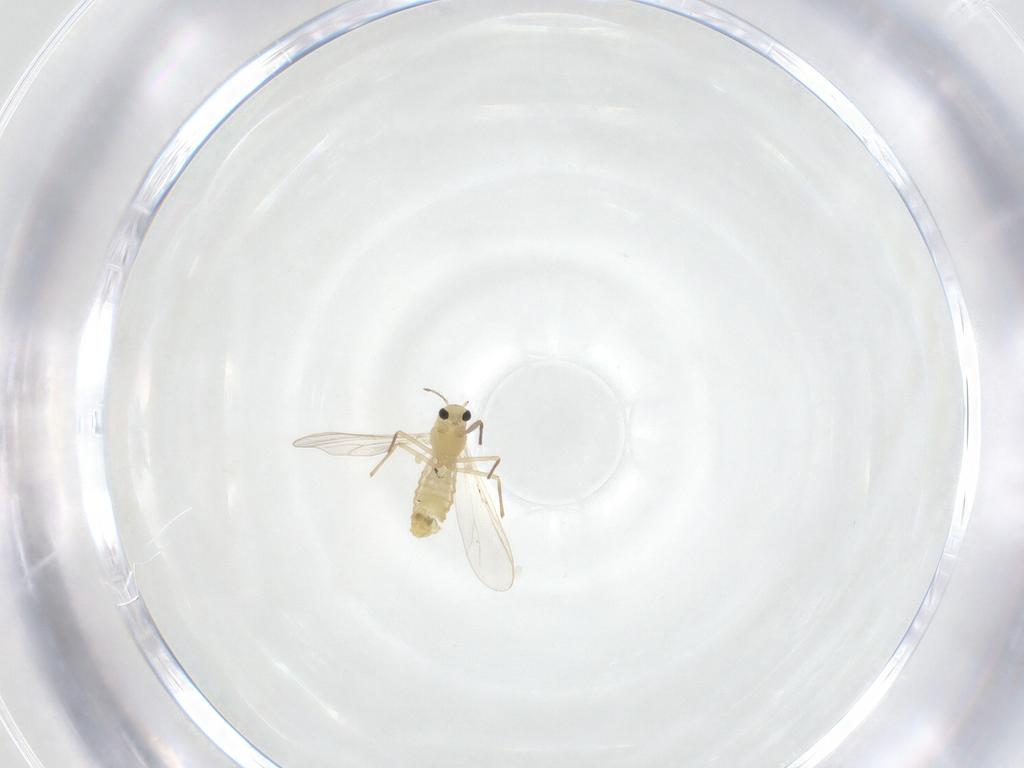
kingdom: Animalia
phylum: Arthropoda
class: Insecta
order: Diptera
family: Chironomidae
